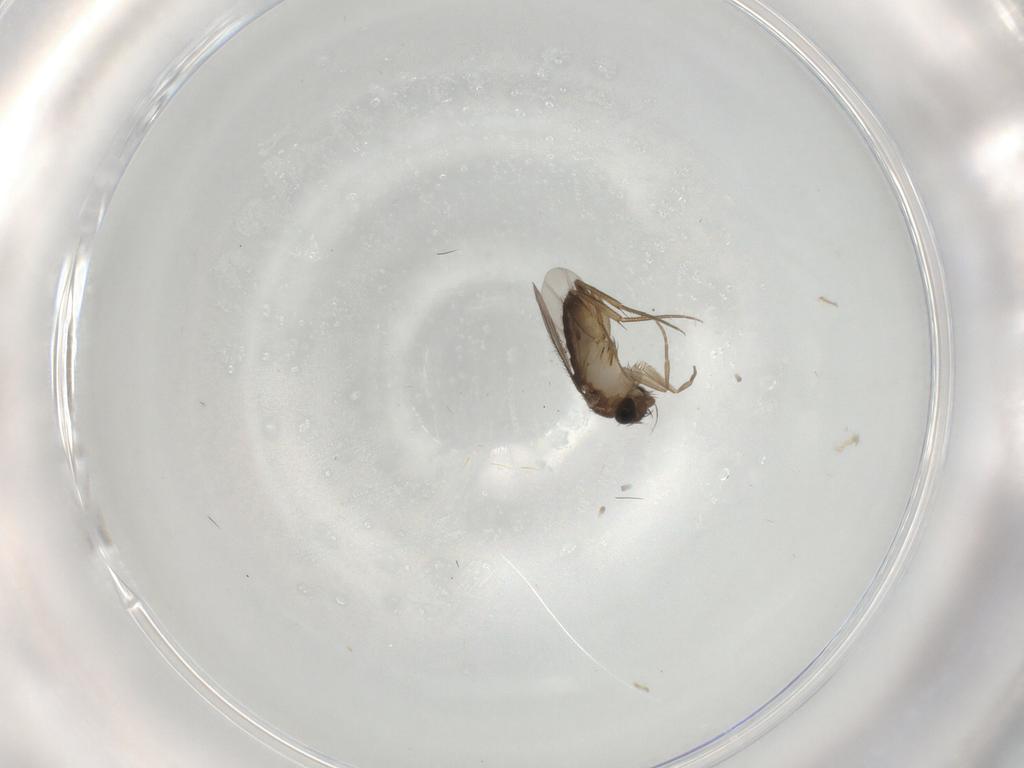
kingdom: Animalia
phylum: Arthropoda
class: Insecta
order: Diptera
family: Phoridae
